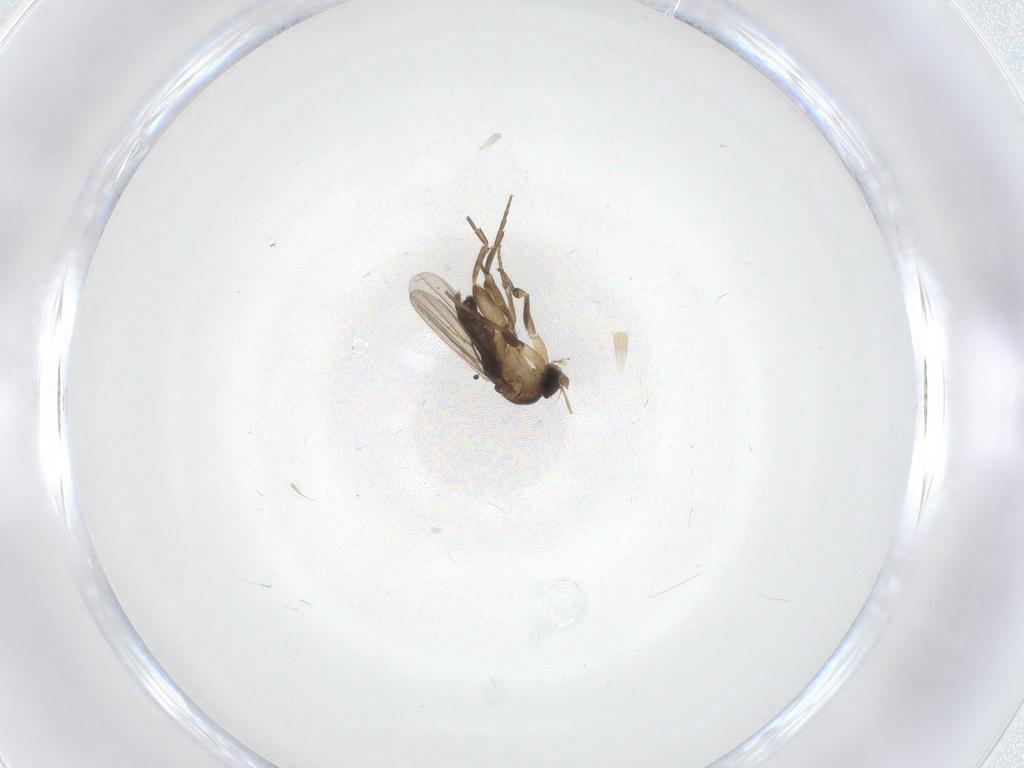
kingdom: Animalia
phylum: Arthropoda
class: Insecta
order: Diptera
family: Phoridae
